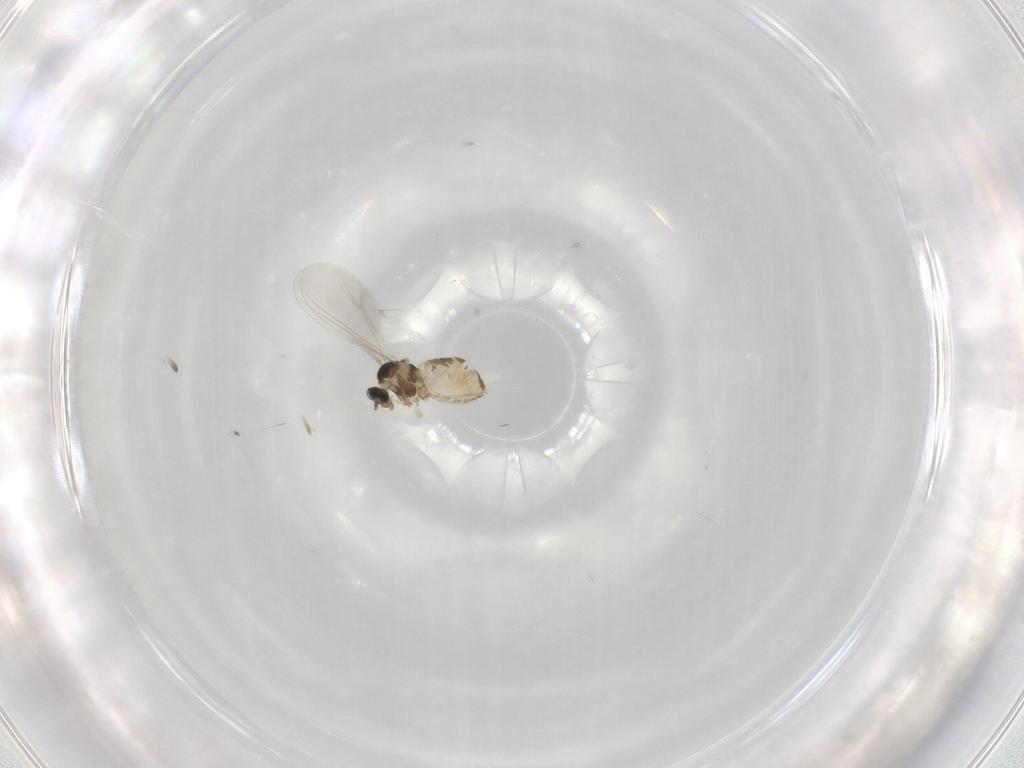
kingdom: Animalia
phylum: Arthropoda
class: Insecta
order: Diptera
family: Cecidomyiidae
